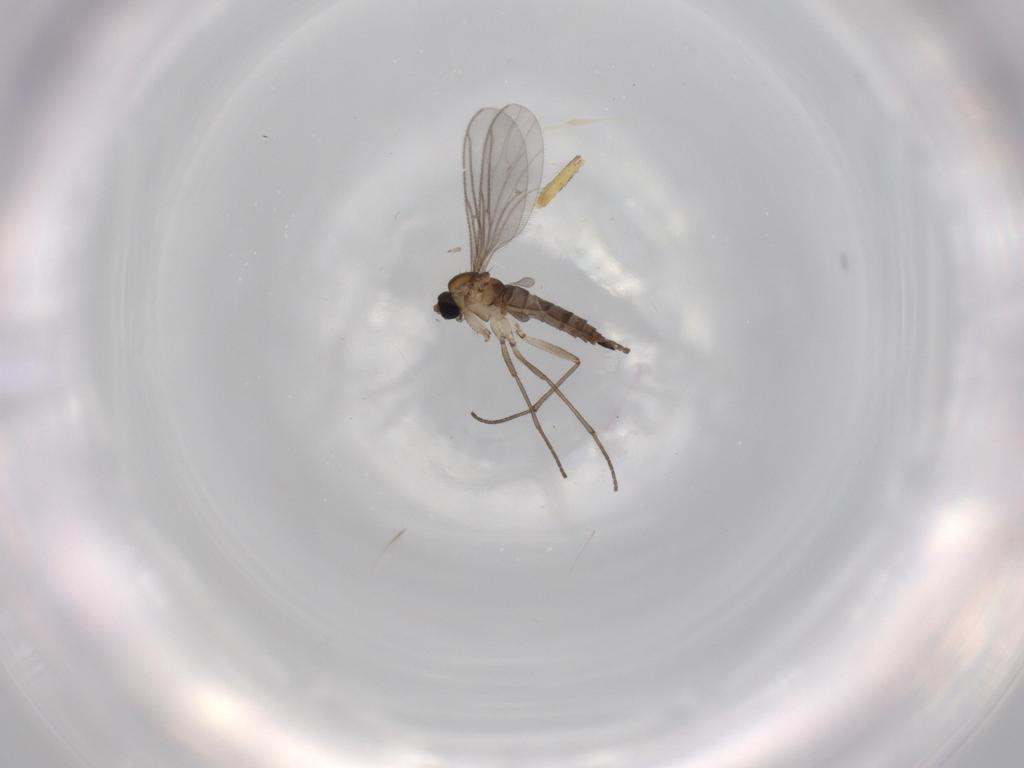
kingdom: Animalia
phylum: Arthropoda
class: Insecta
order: Diptera
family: Sciaridae
